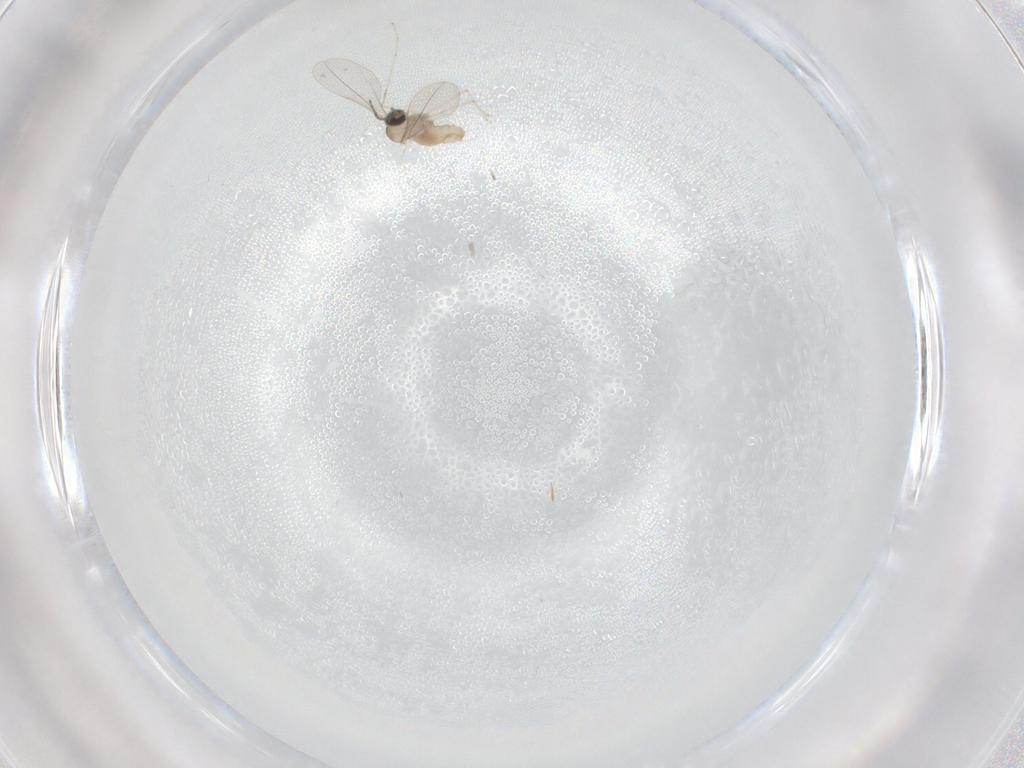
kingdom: Animalia
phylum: Arthropoda
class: Insecta
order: Diptera
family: Cecidomyiidae
